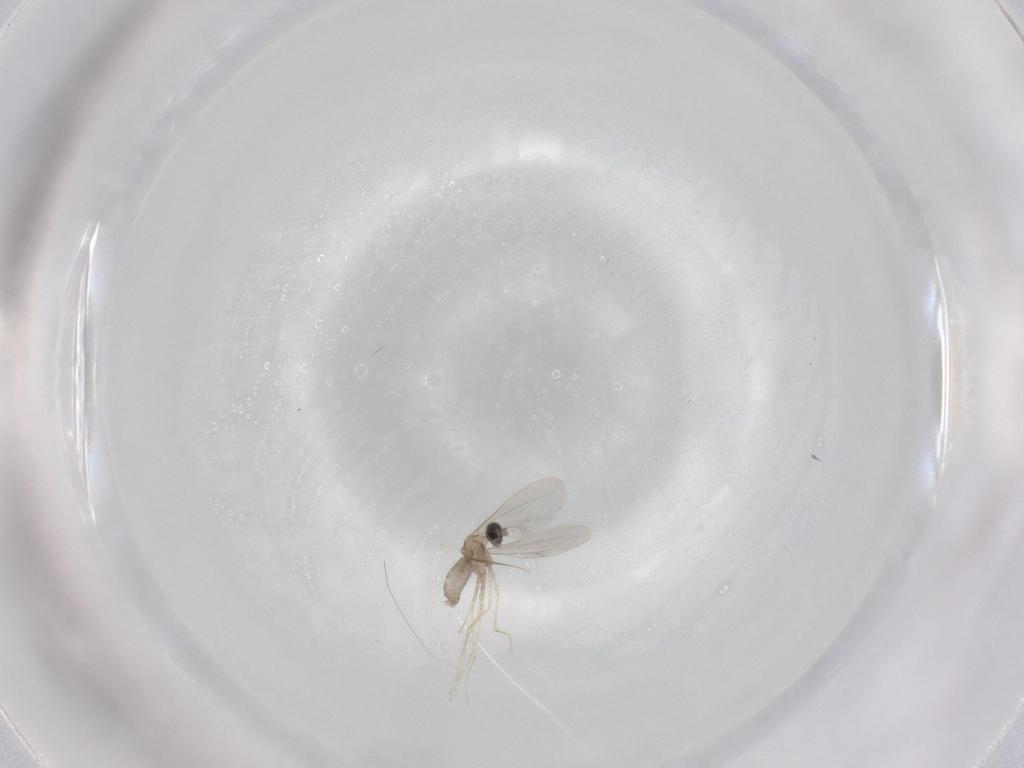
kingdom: Animalia
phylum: Arthropoda
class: Insecta
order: Diptera
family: Cecidomyiidae
